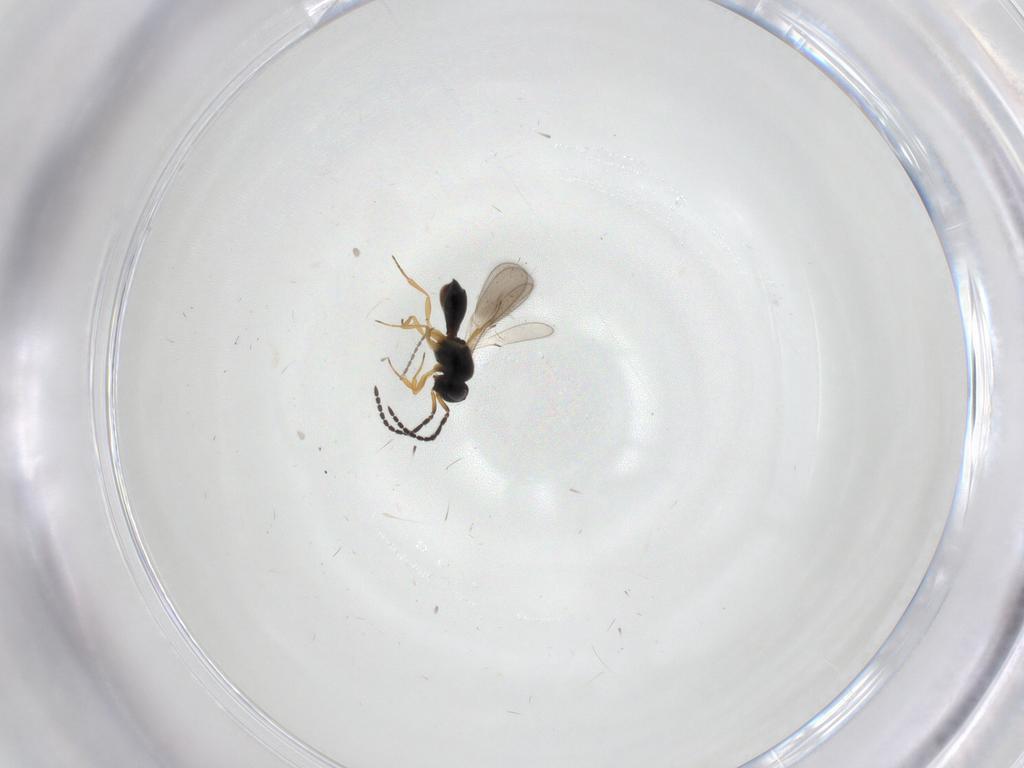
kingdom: Animalia
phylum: Arthropoda
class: Insecta
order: Hymenoptera
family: Scelionidae
